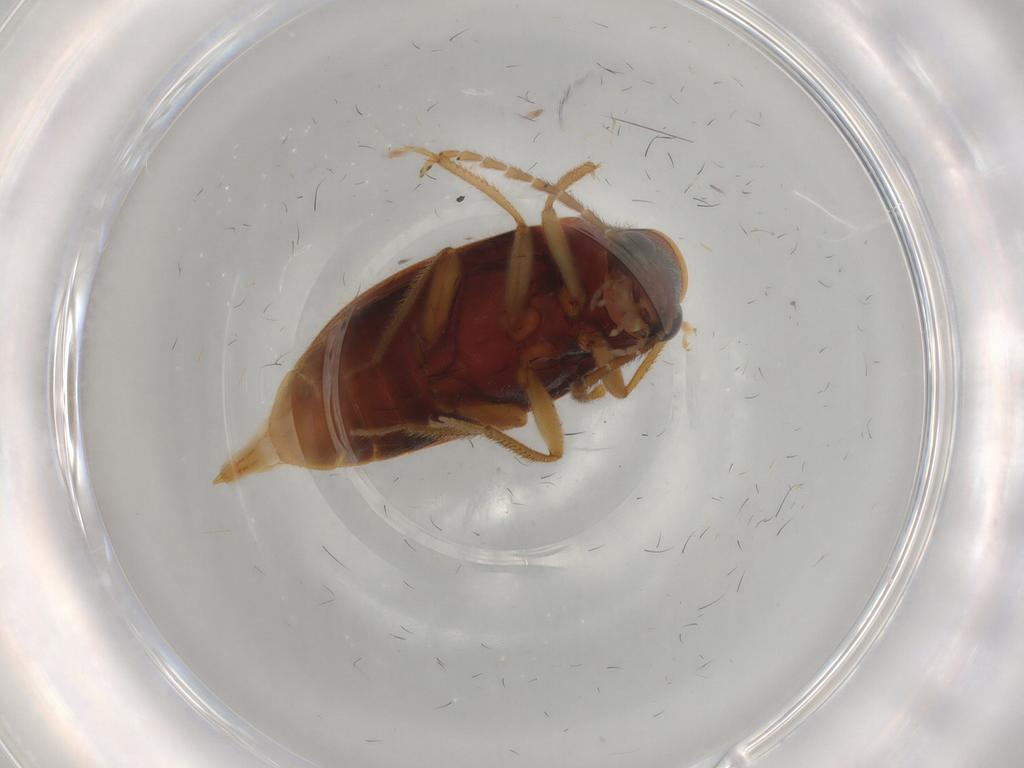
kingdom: Animalia
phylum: Arthropoda
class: Insecta
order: Coleoptera
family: Ptilodactylidae
